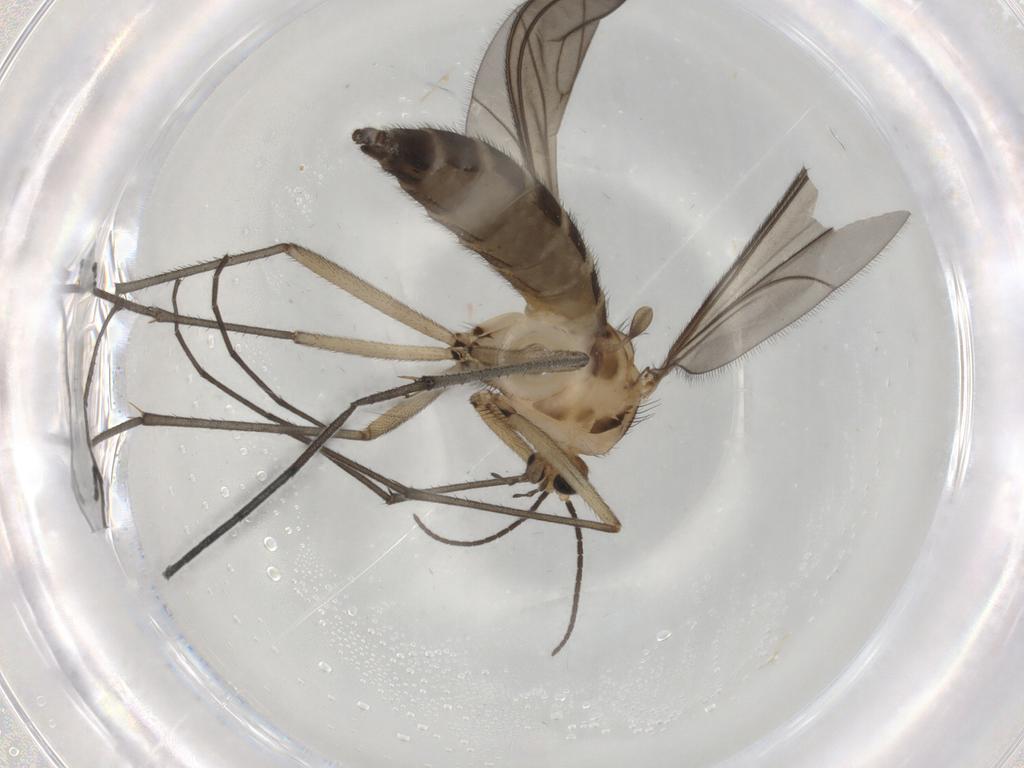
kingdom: Animalia
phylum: Arthropoda
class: Insecta
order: Diptera
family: Sciaridae
